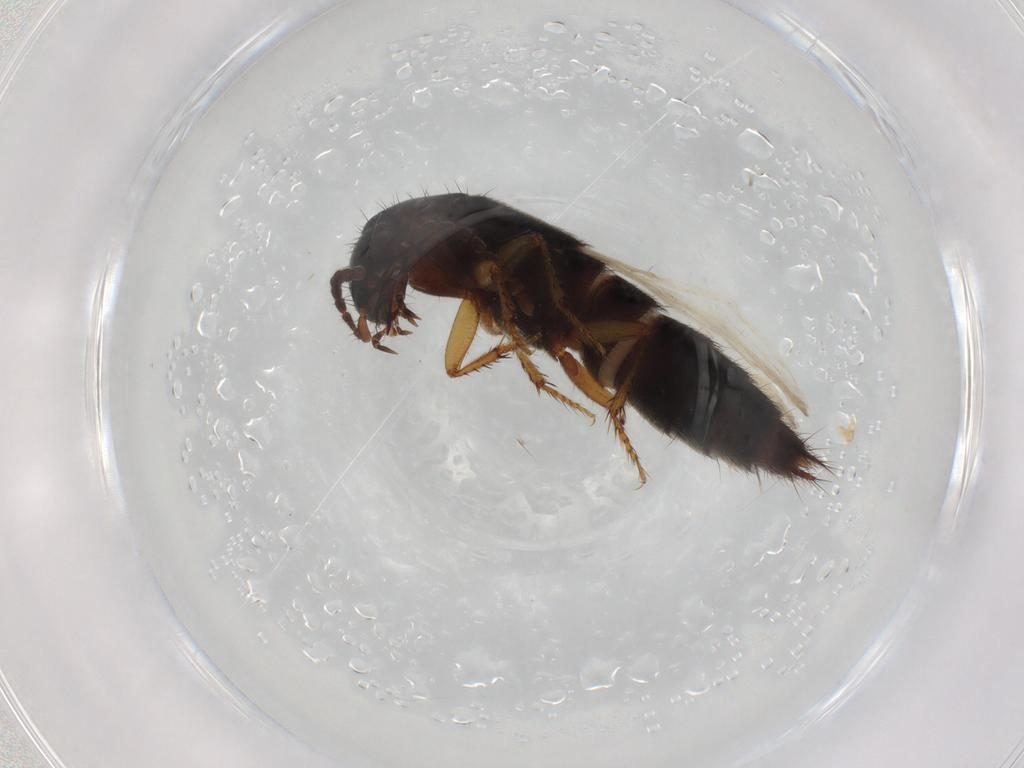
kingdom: Animalia
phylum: Arthropoda
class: Insecta
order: Coleoptera
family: Staphylinidae
